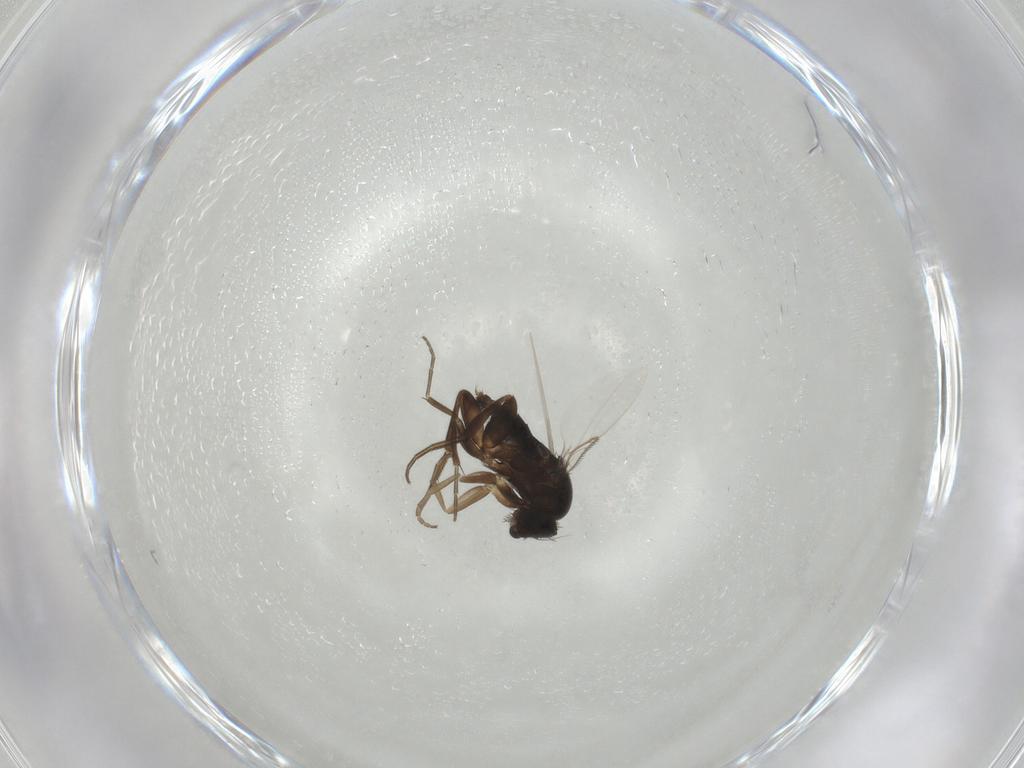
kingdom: Animalia
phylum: Arthropoda
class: Insecta
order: Diptera
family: Phoridae
